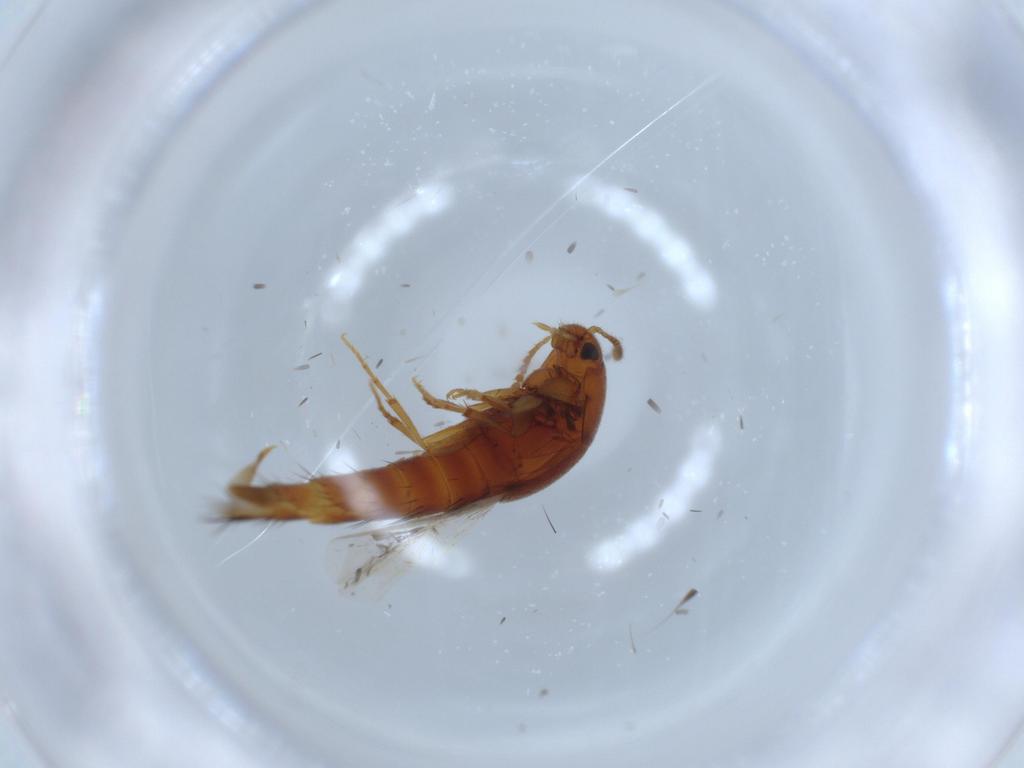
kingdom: Animalia
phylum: Arthropoda
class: Insecta
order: Coleoptera
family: Staphylinidae
